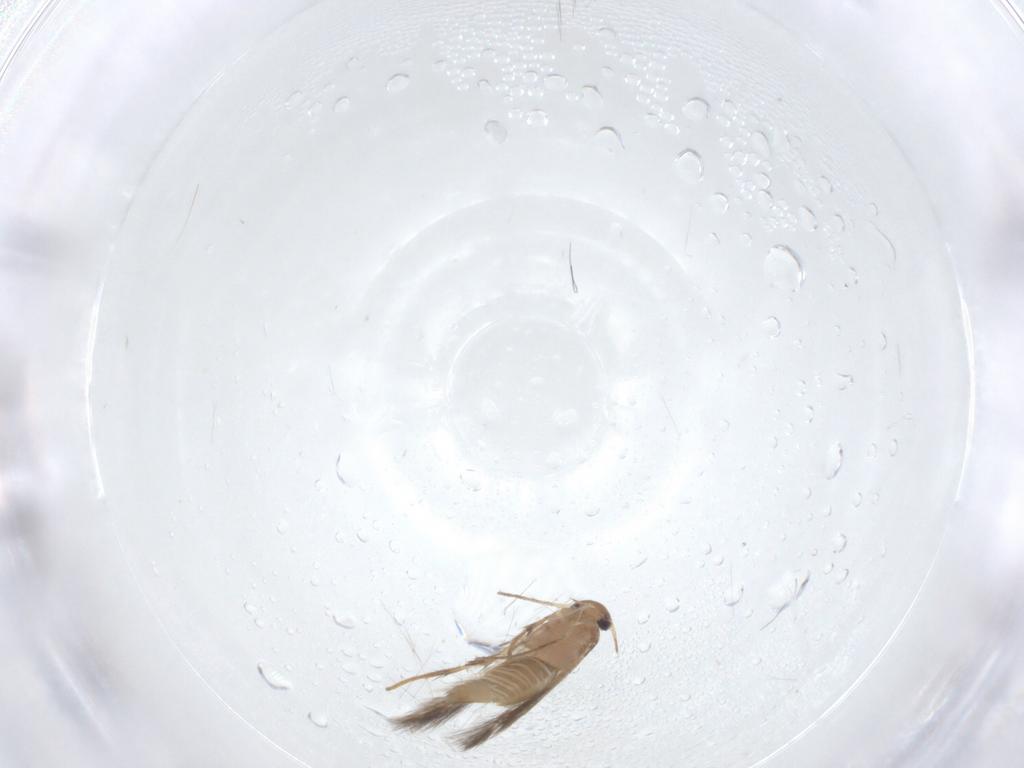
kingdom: Animalia
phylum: Arthropoda
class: Insecta
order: Lepidoptera
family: Pyralidae
